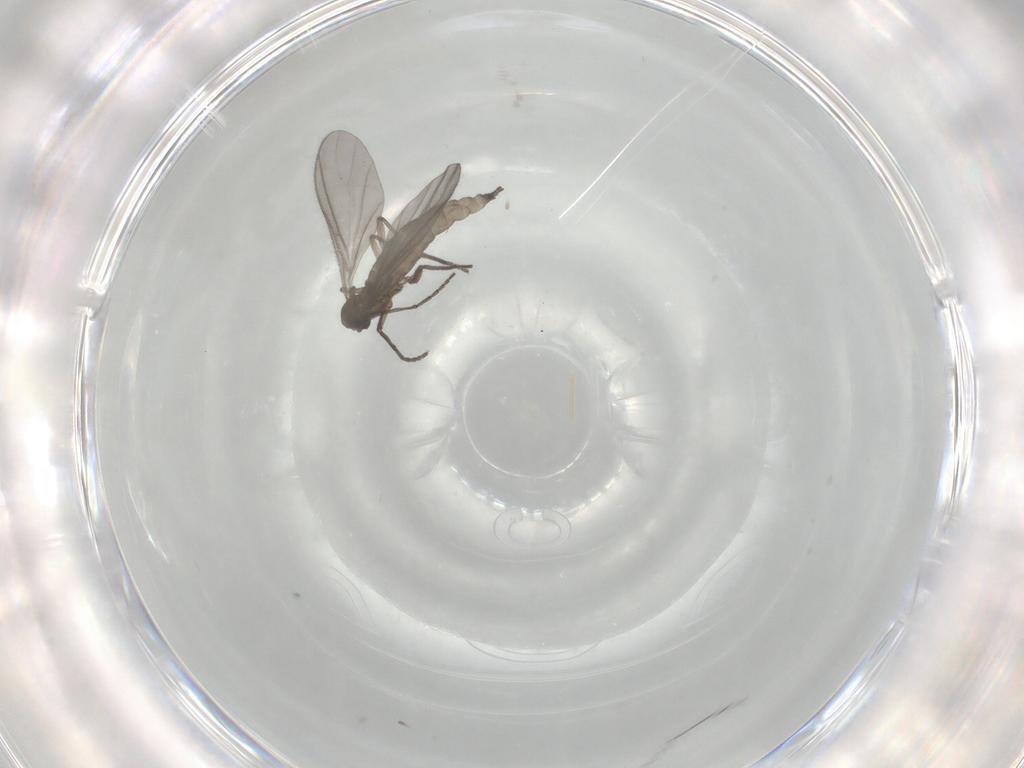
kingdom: Animalia
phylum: Arthropoda
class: Insecta
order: Diptera
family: Sciaridae
